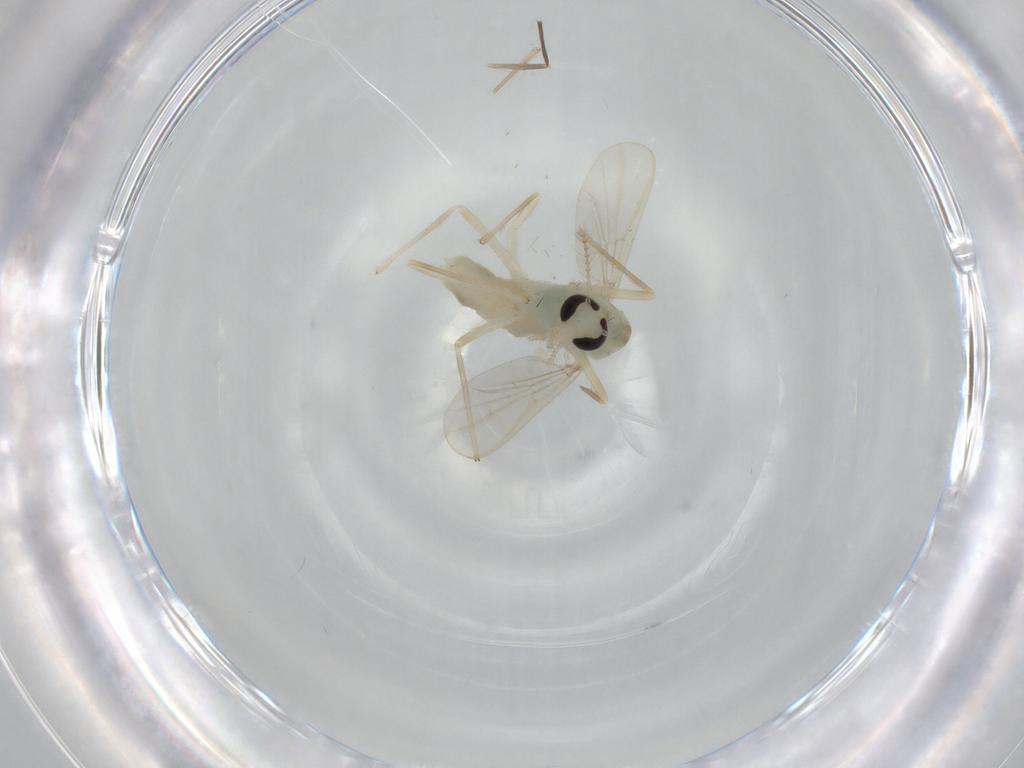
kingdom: Animalia
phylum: Arthropoda
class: Insecta
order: Diptera
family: Chironomidae
